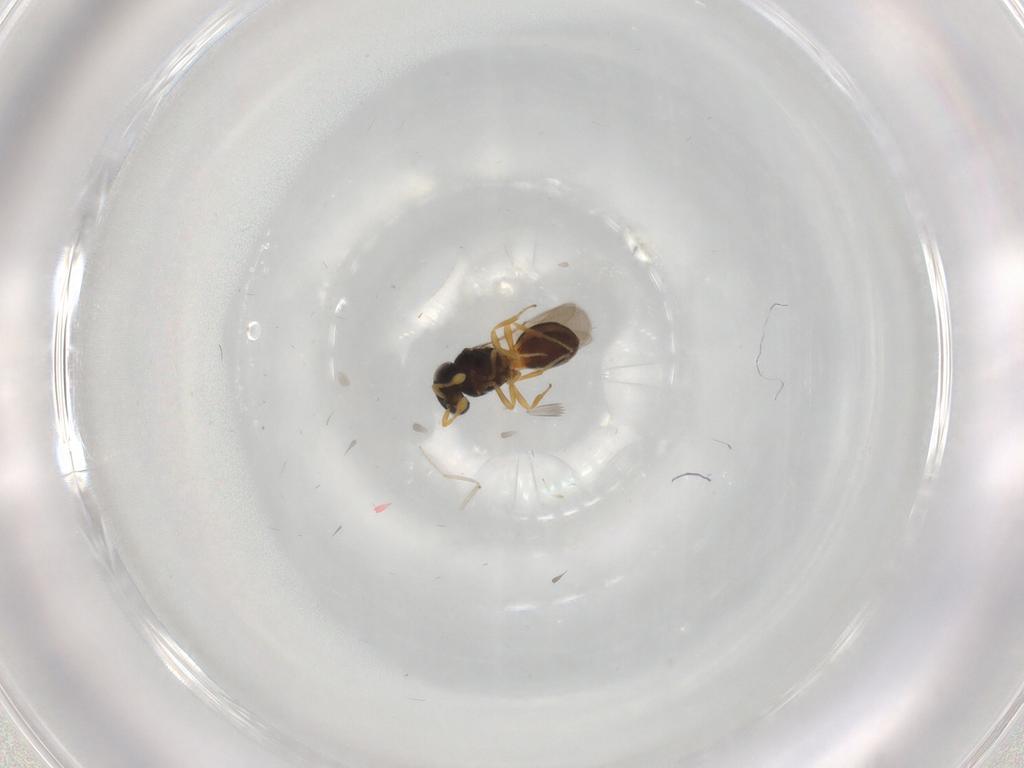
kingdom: Animalia
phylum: Arthropoda
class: Insecta
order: Hymenoptera
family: Scelionidae
